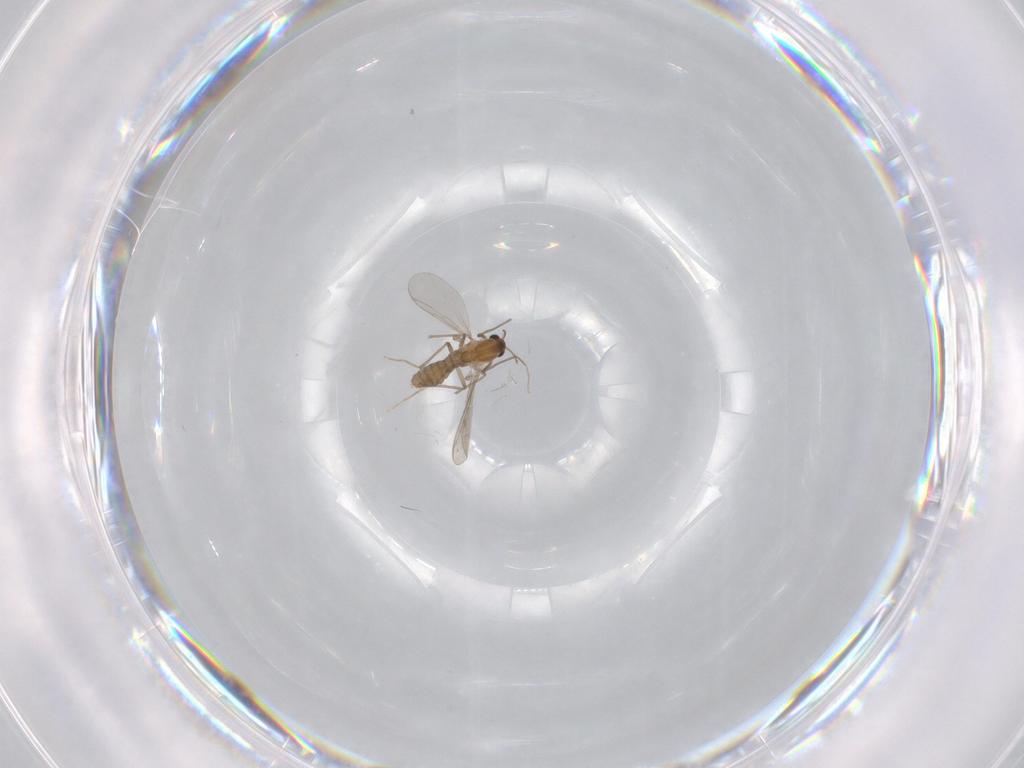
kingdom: Animalia
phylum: Arthropoda
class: Insecta
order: Diptera
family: Chironomidae
